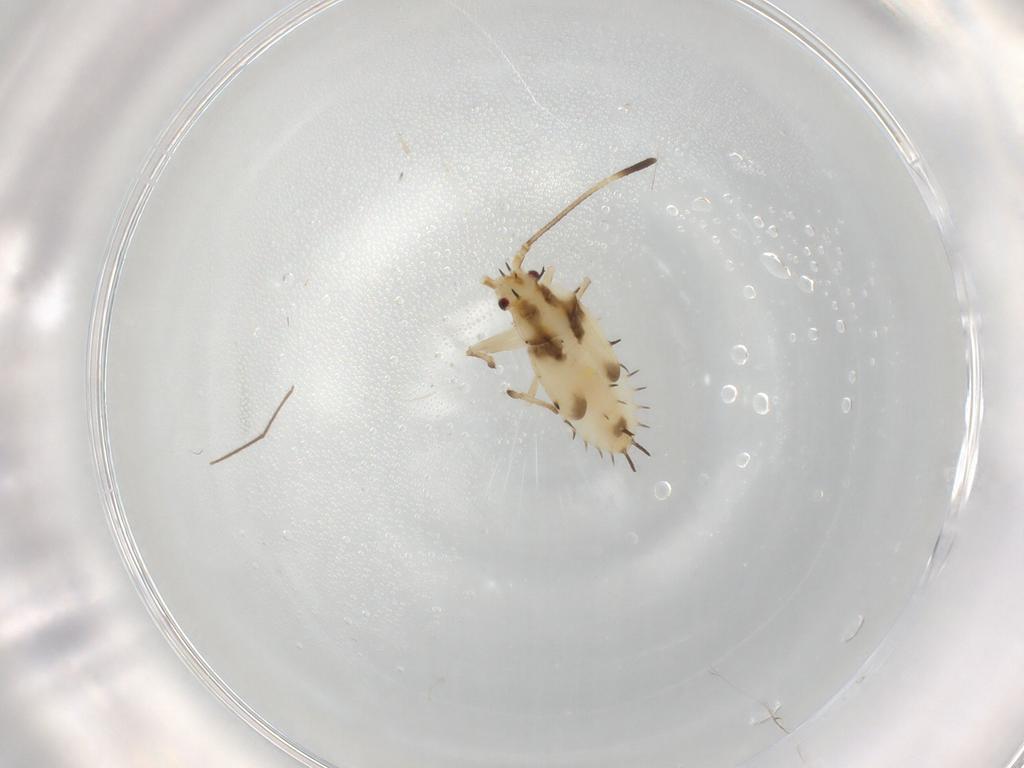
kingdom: Animalia
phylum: Arthropoda
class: Insecta
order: Hemiptera
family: Tingidae
